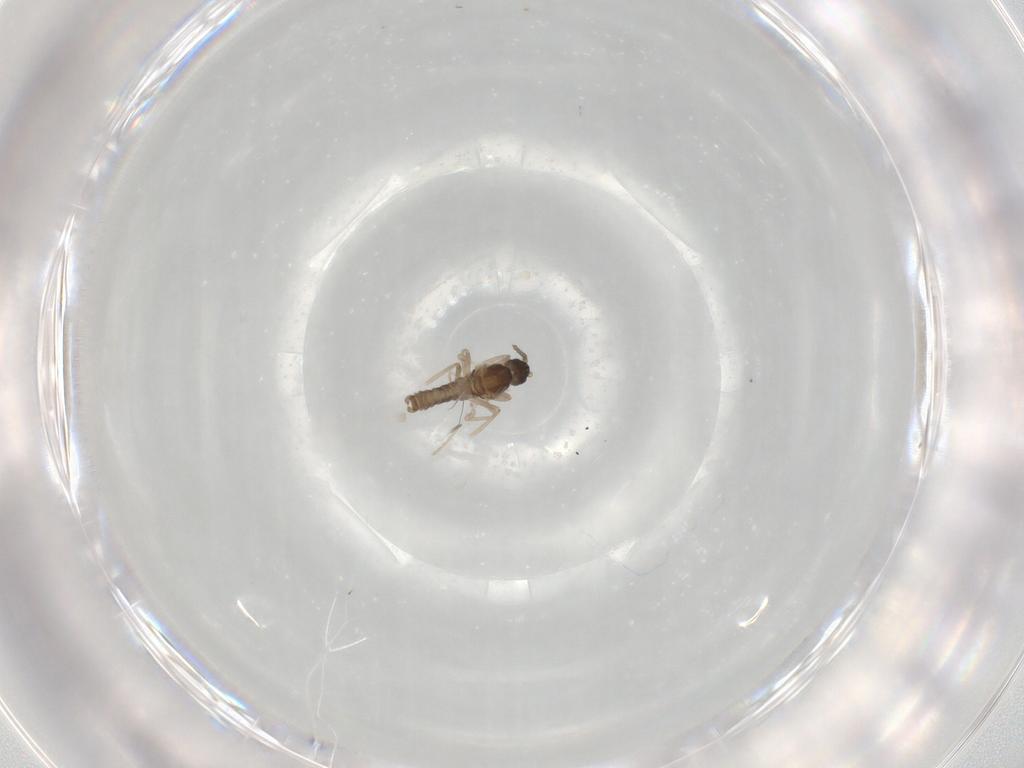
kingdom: Animalia
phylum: Arthropoda
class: Insecta
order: Diptera
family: Cecidomyiidae
